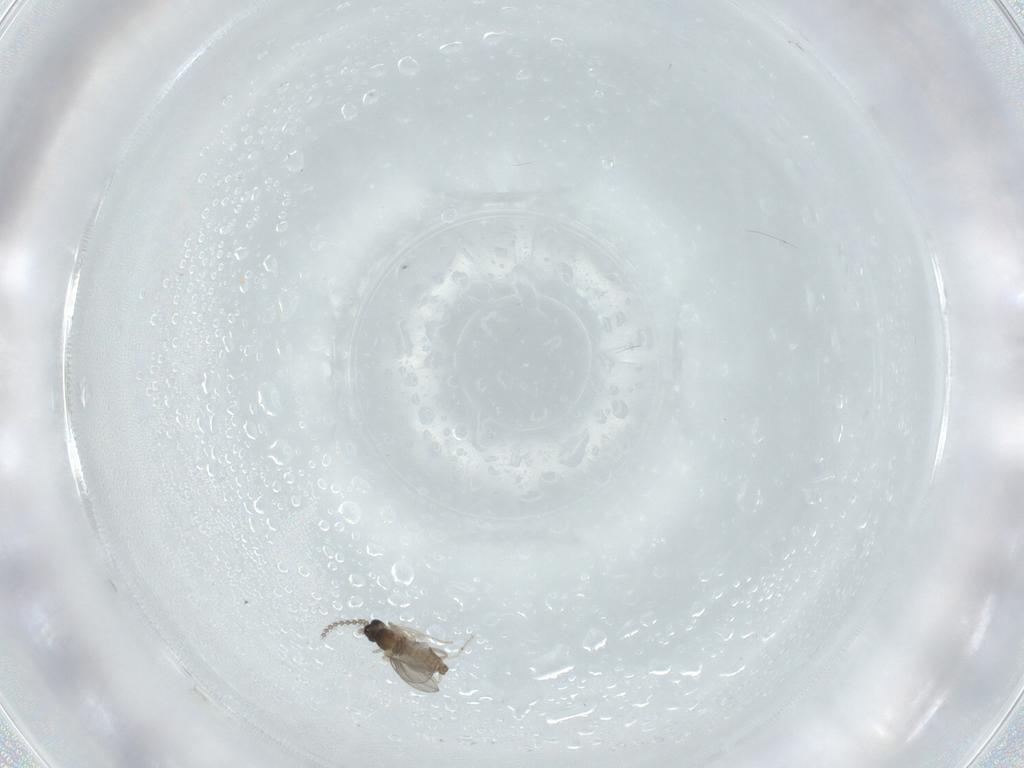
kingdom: Animalia
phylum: Arthropoda
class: Insecta
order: Diptera
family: Cecidomyiidae
